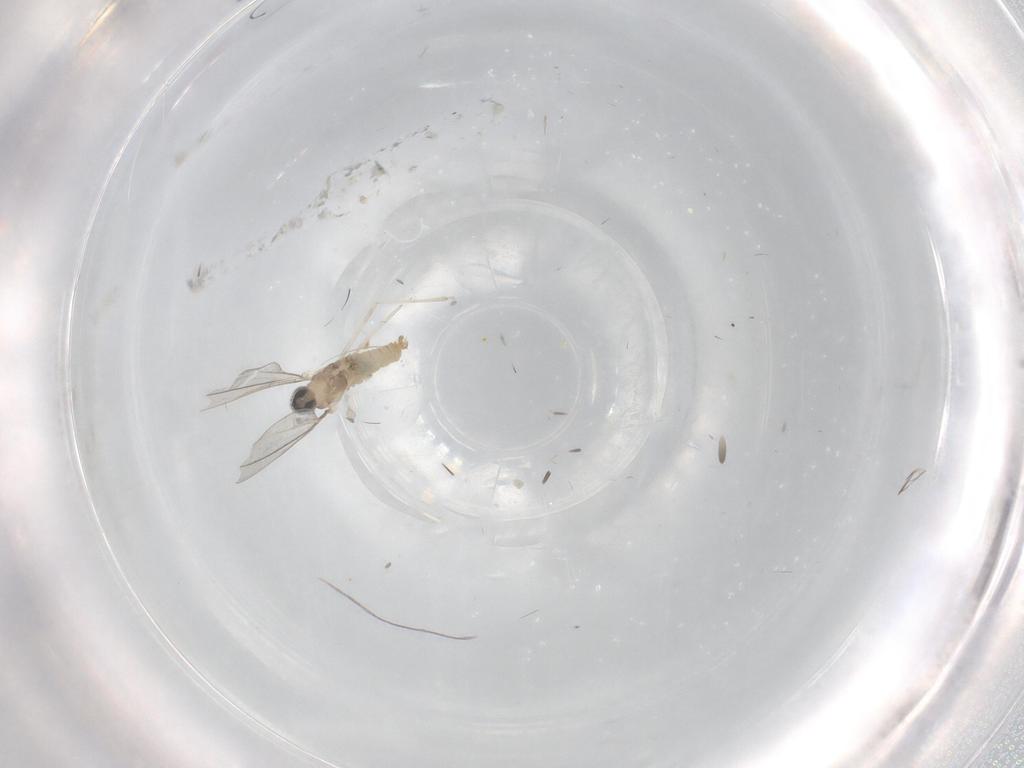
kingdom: Animalia
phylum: Arthropoda
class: Insecta
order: Diptera
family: Cecidomyiidae
